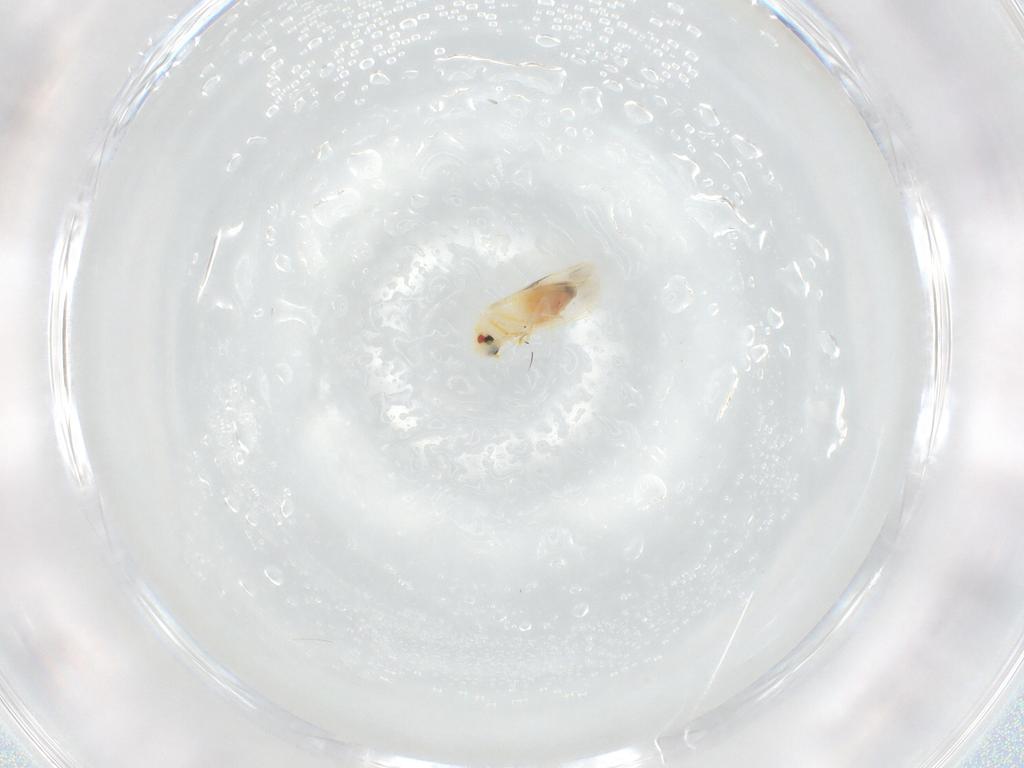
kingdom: Animalia
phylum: Arthropoda
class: Insecta
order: Hemiptera
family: Aleyrodidae
